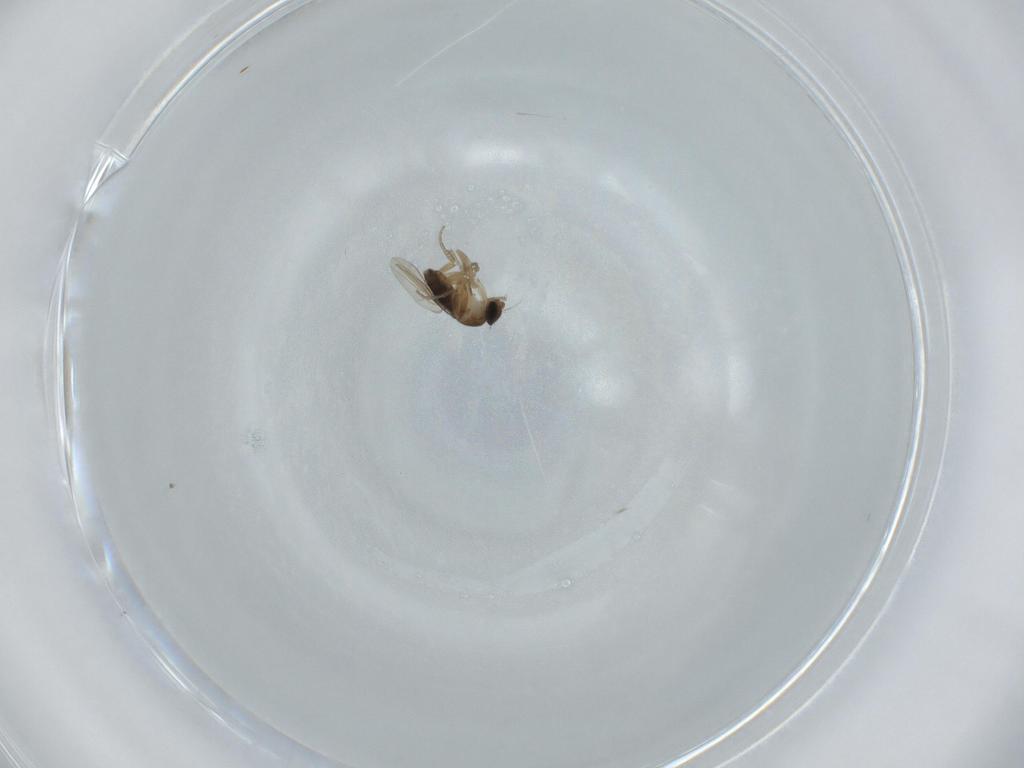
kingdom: Animalia
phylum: Arthropoda
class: Insecta
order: Diptera
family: Phoridae
